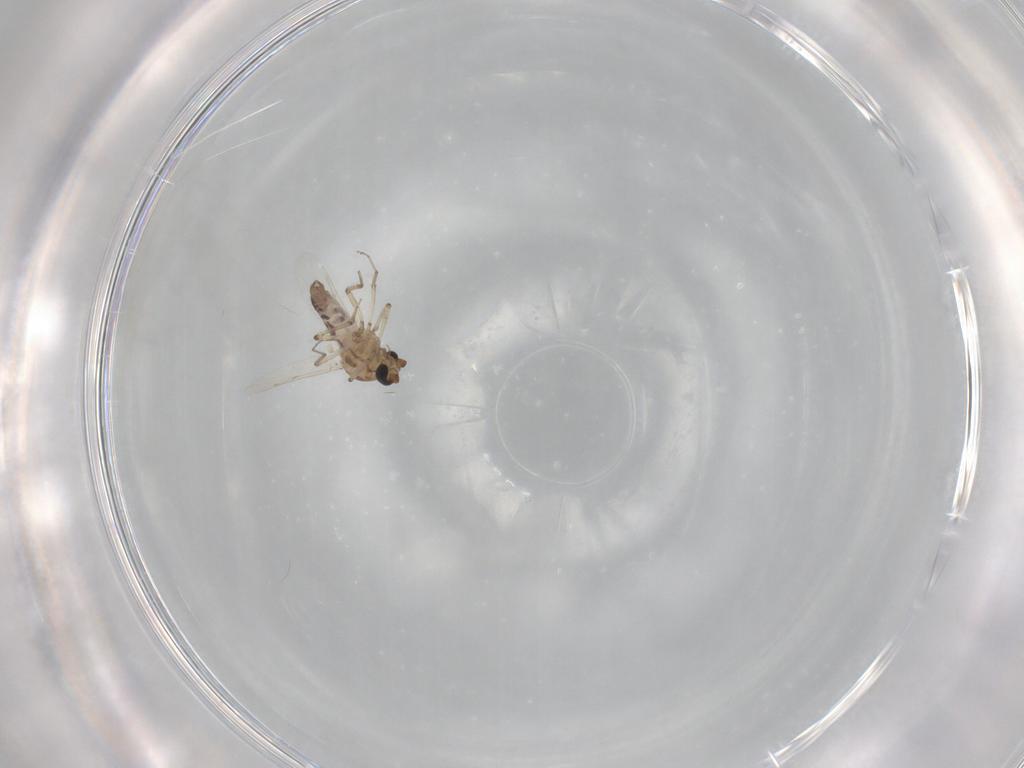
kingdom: Animalia
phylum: Arthropoda
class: Insecta
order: Diptera
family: Ceratopogonidae
